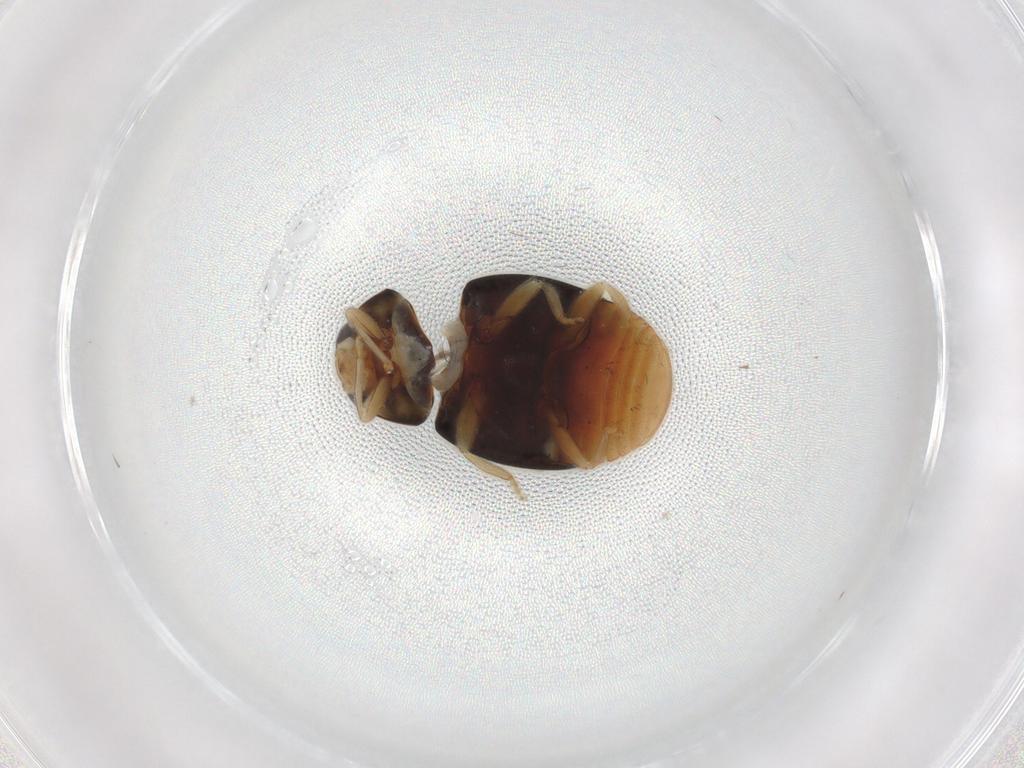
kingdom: Animalia
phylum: Arthropoda
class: Insecta
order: Coleoptera
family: Coccinellidae
